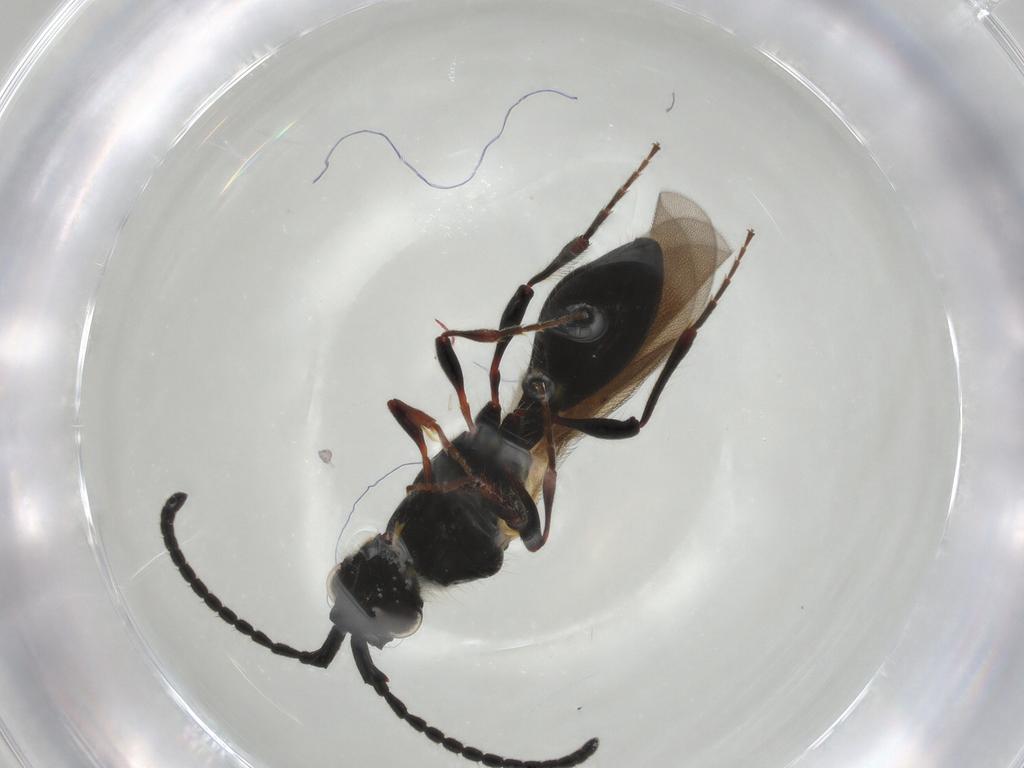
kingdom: Animalia
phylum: Arthropoda
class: Insecta
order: Hymenoptera
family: Diapriidae
